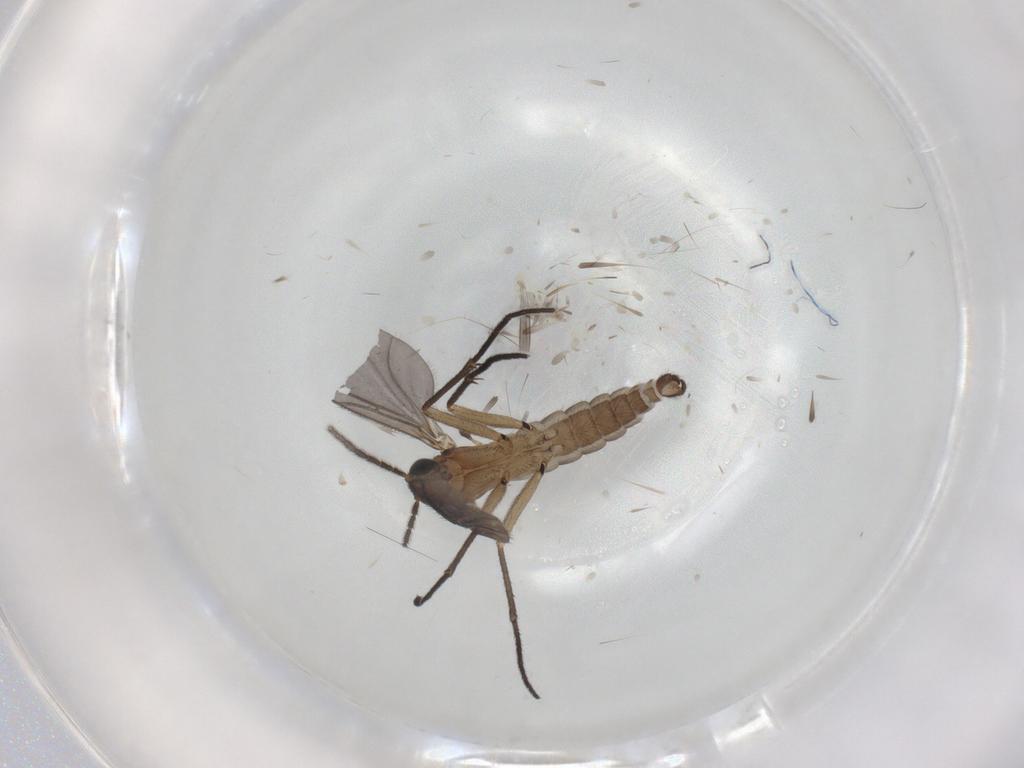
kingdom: Animalia
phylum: Arthropoda
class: Insecta
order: Diptera
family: Sciaridae
